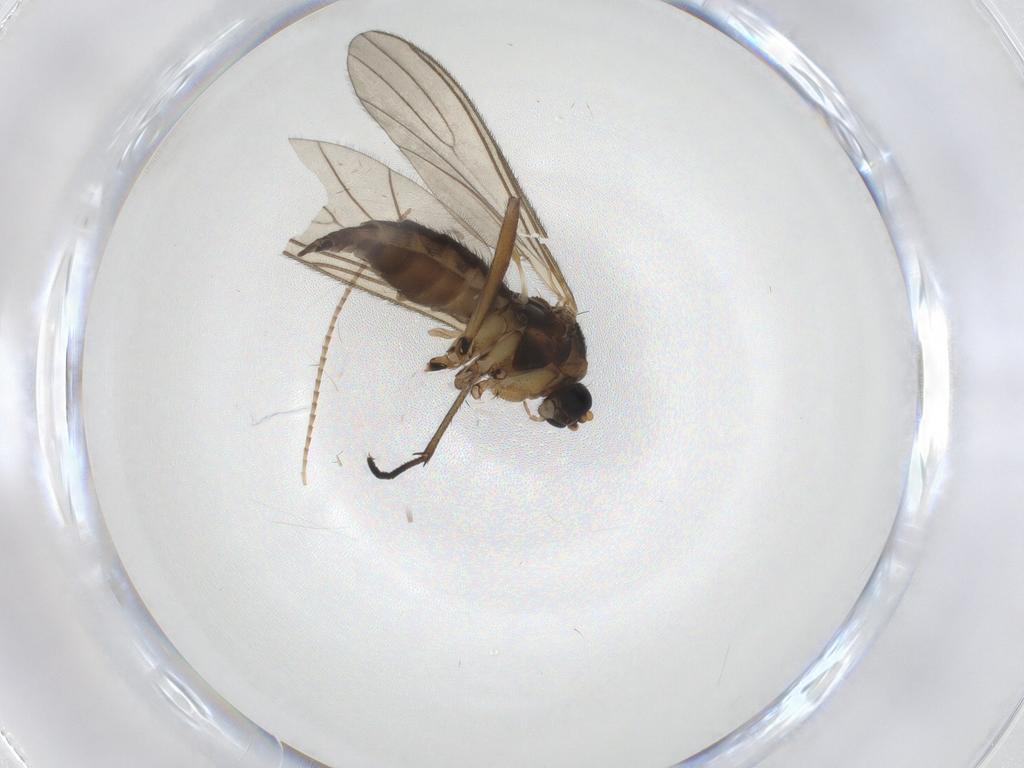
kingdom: Animalia
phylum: Arthropoda
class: Insecta
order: Diptera
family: Sciaridae
